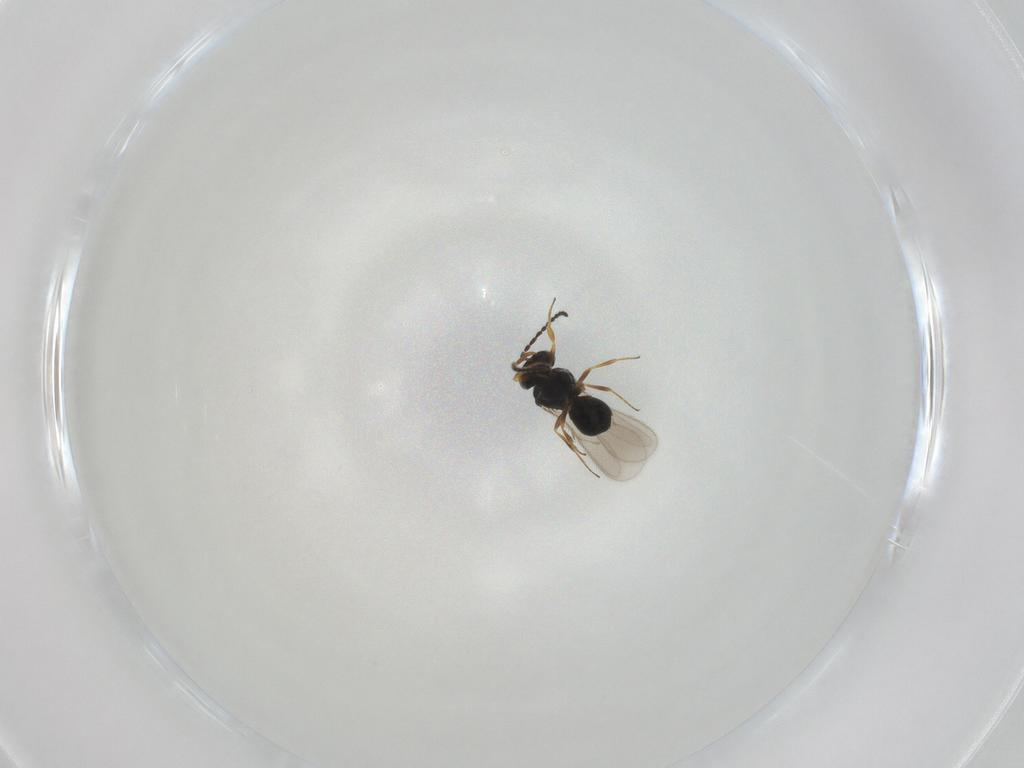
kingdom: Animalia
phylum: Arthropoda
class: Insecta
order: Hymenoptera
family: Scelionidae
